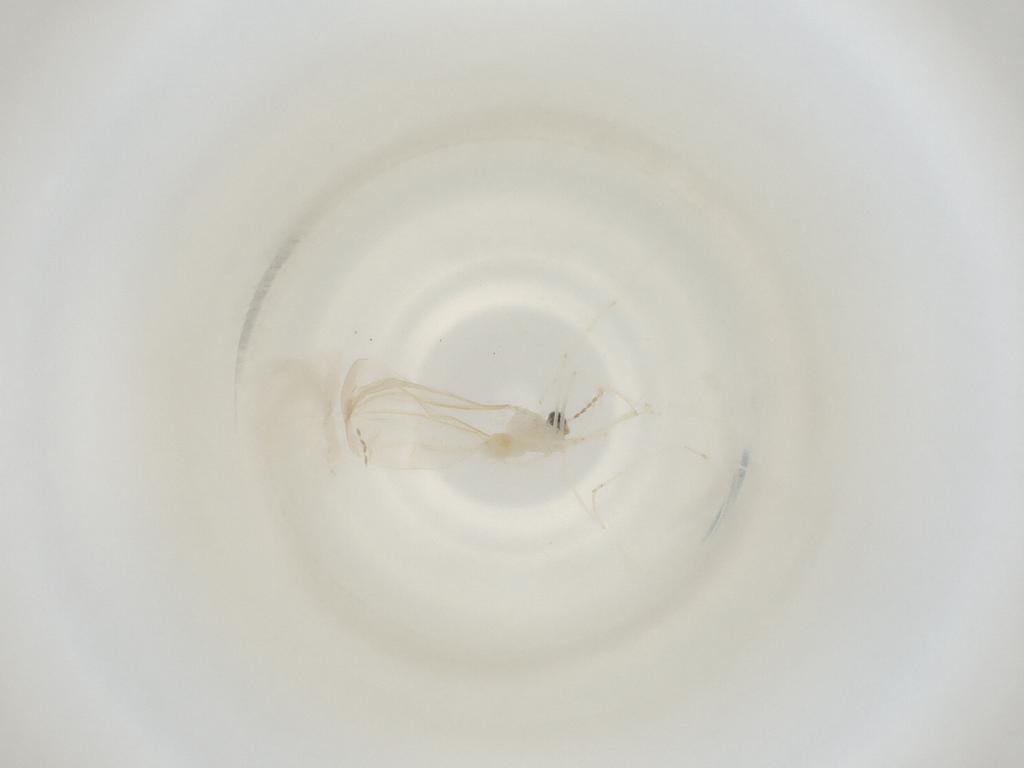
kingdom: Animalia
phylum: Arthropoda
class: Insecta
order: Diptera
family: Cecidomyiidae
